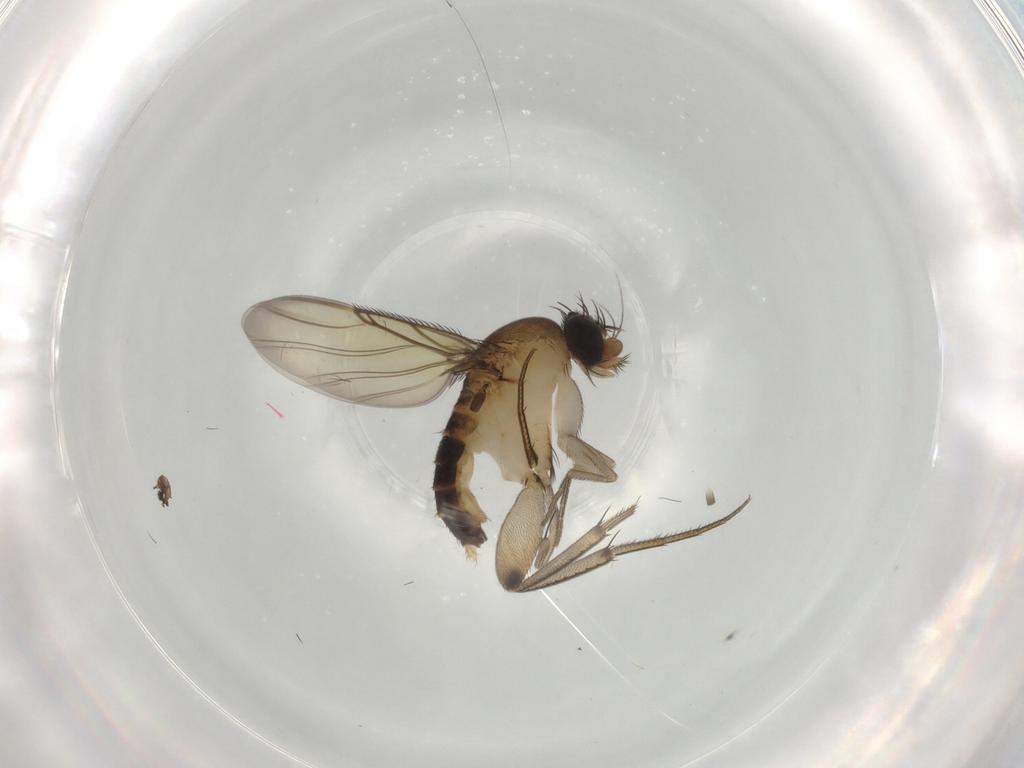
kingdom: Animalia
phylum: Arthropoda
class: Insecta
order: Diptera
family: Phoridae
